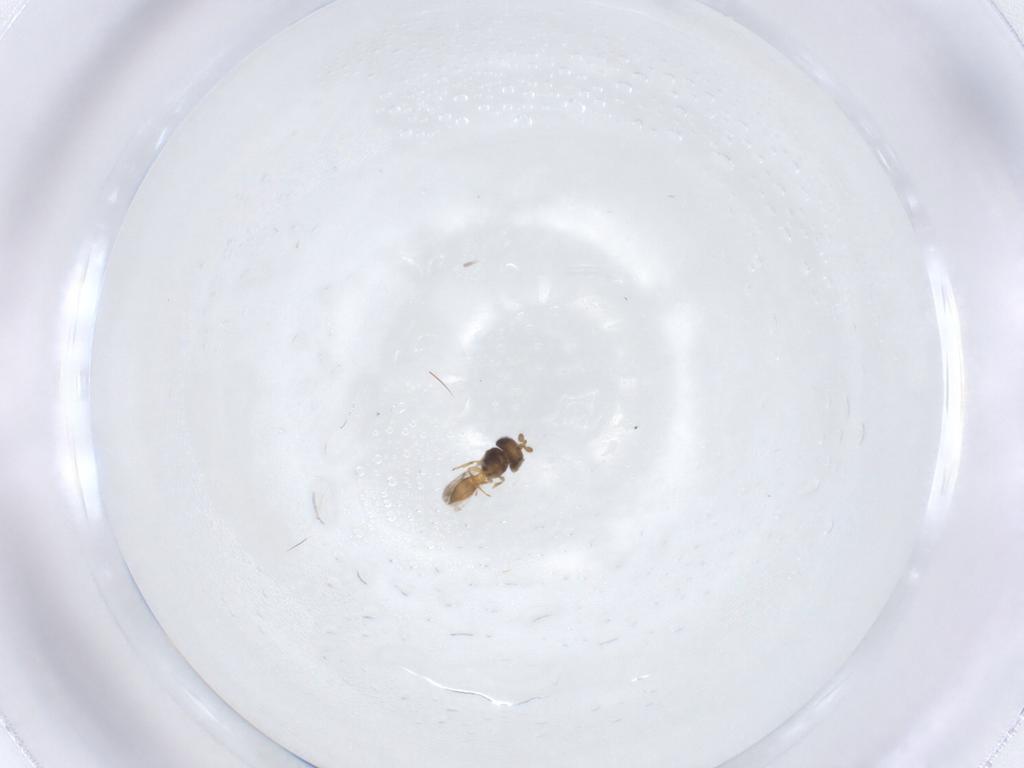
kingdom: Animalia
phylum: Arthropoda
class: Insecta
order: Hymenoptera
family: Scelionidae
